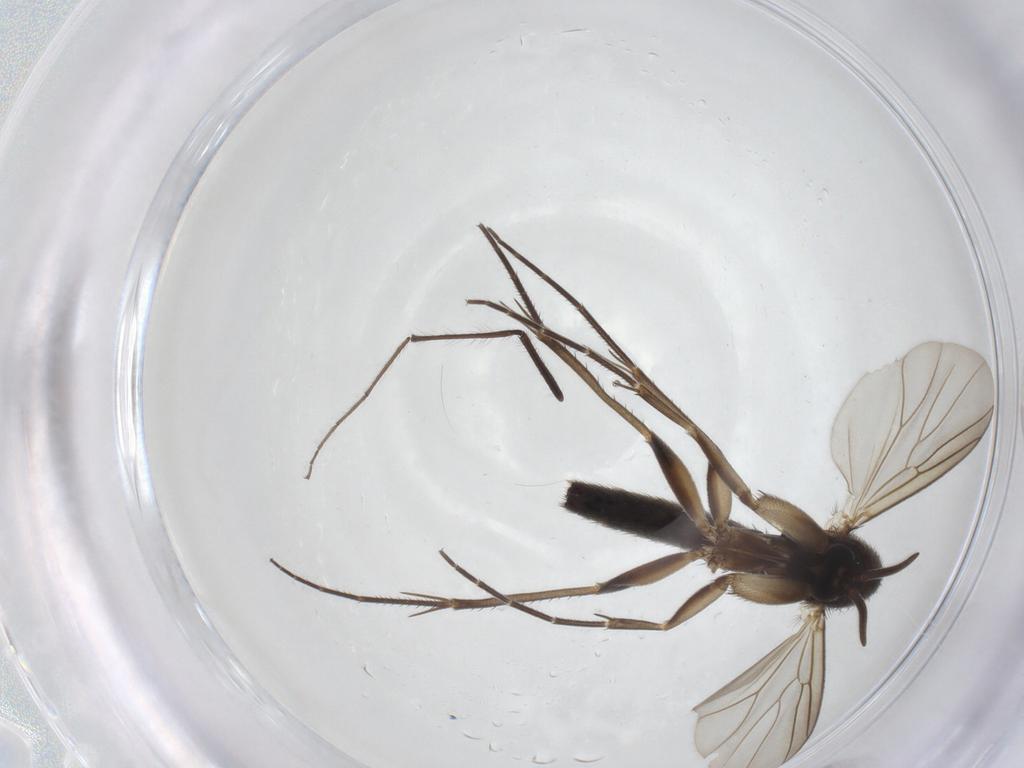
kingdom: Animalia
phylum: Arthropoda
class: Insecta
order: Diptera
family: Mycetophilidae
